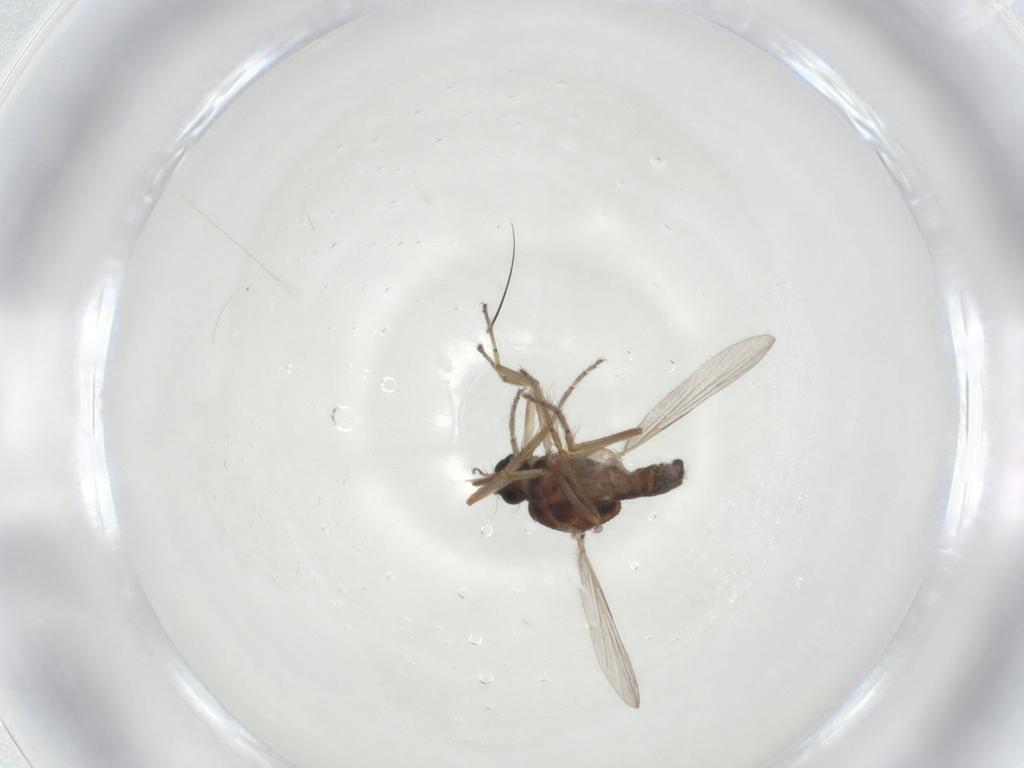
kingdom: Animalia
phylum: Arthropoda
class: Insecta
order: Diptera
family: Ceratopogonidae
